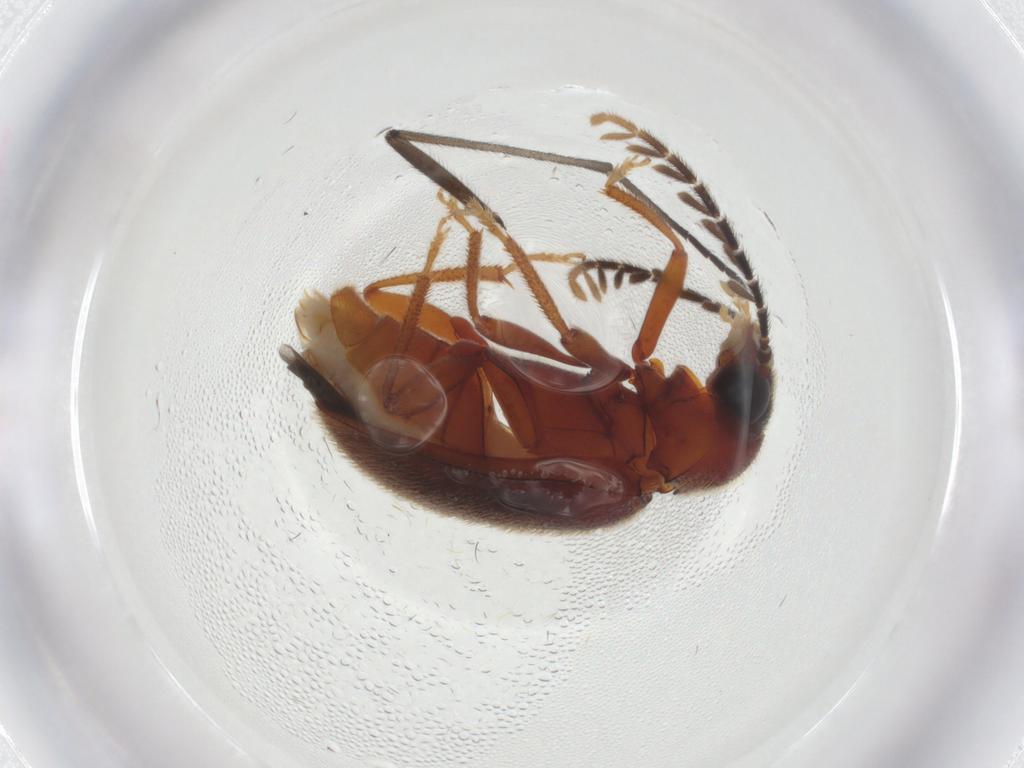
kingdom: Animalia
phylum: Arthropoda
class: Insecta
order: Coleoptera
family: Ptilodactylidae
